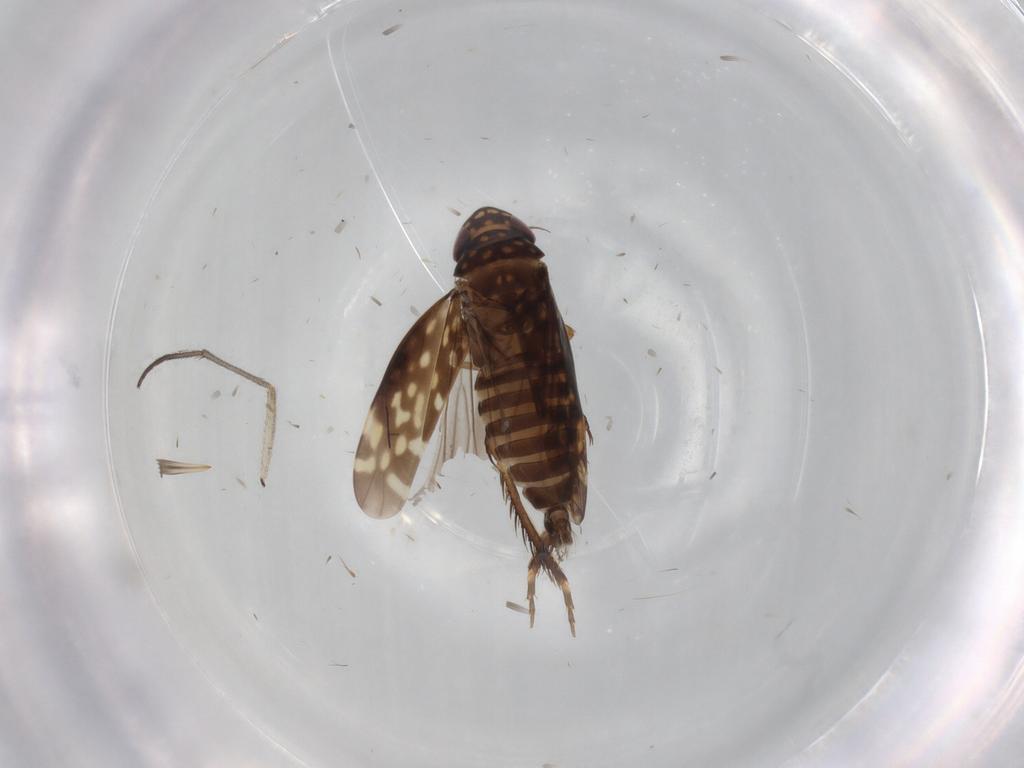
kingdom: Animalia
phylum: Arthropoda
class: Insecta
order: Hemiptera
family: Cicadellidae
